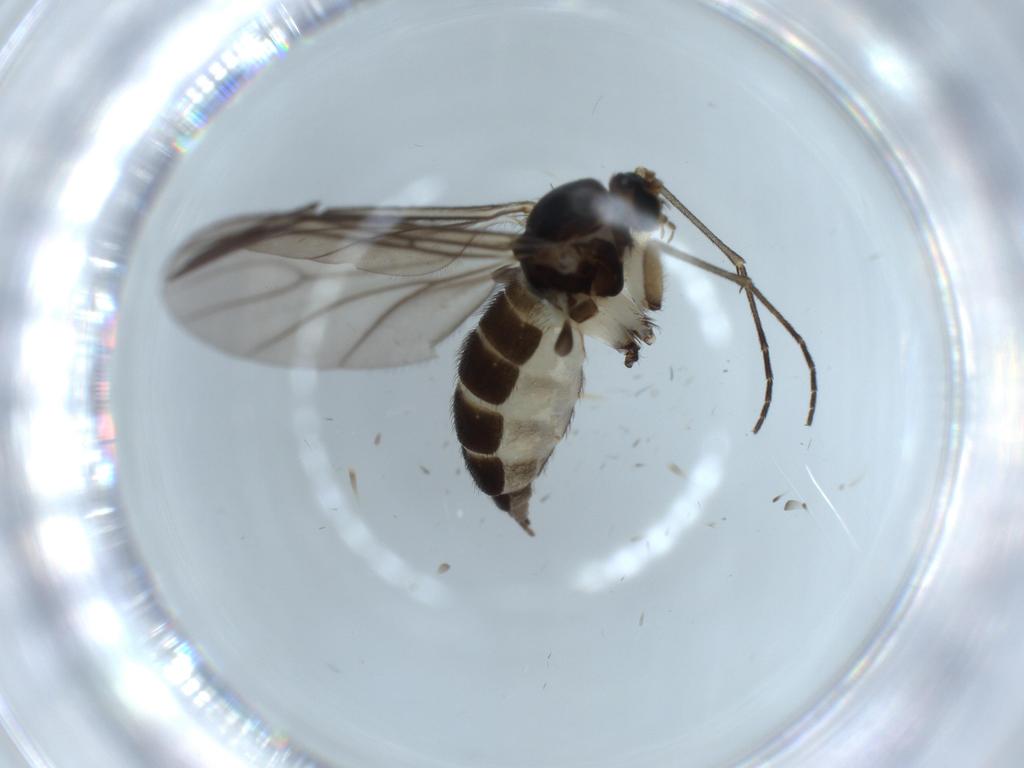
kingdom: Animalia
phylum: Arthropoda
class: Insecta
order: Diptera
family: Sciaridae
